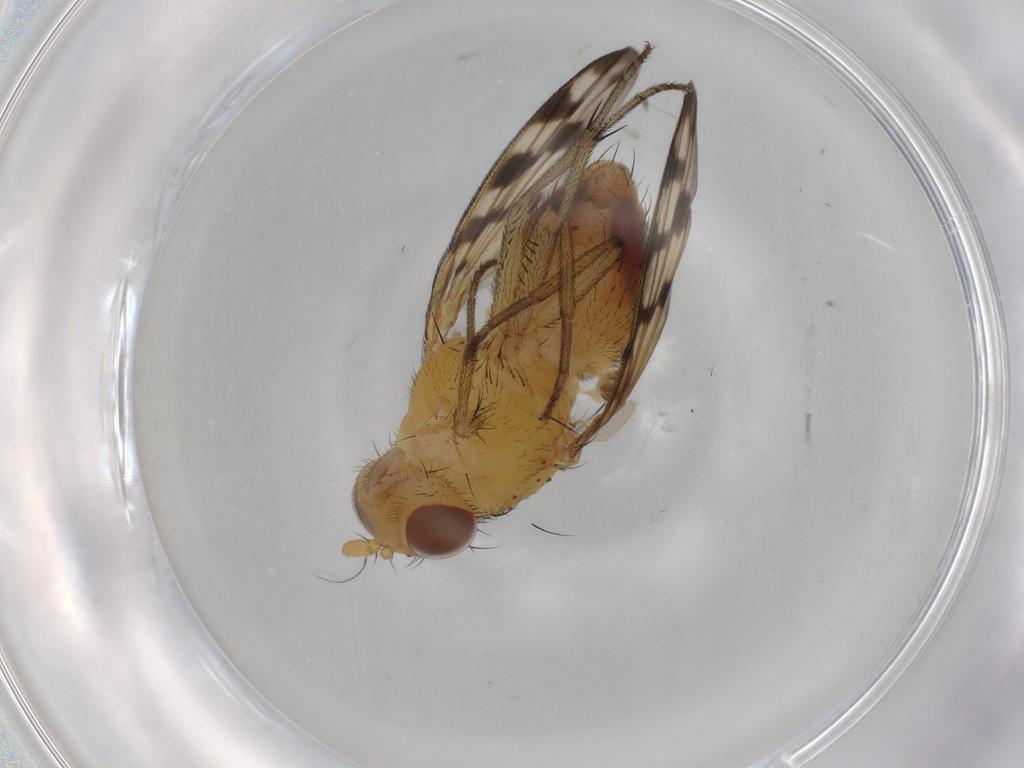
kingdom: Animalia
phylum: Arthropoda
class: Insecta
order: Diptera
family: Cecidomyiidae
